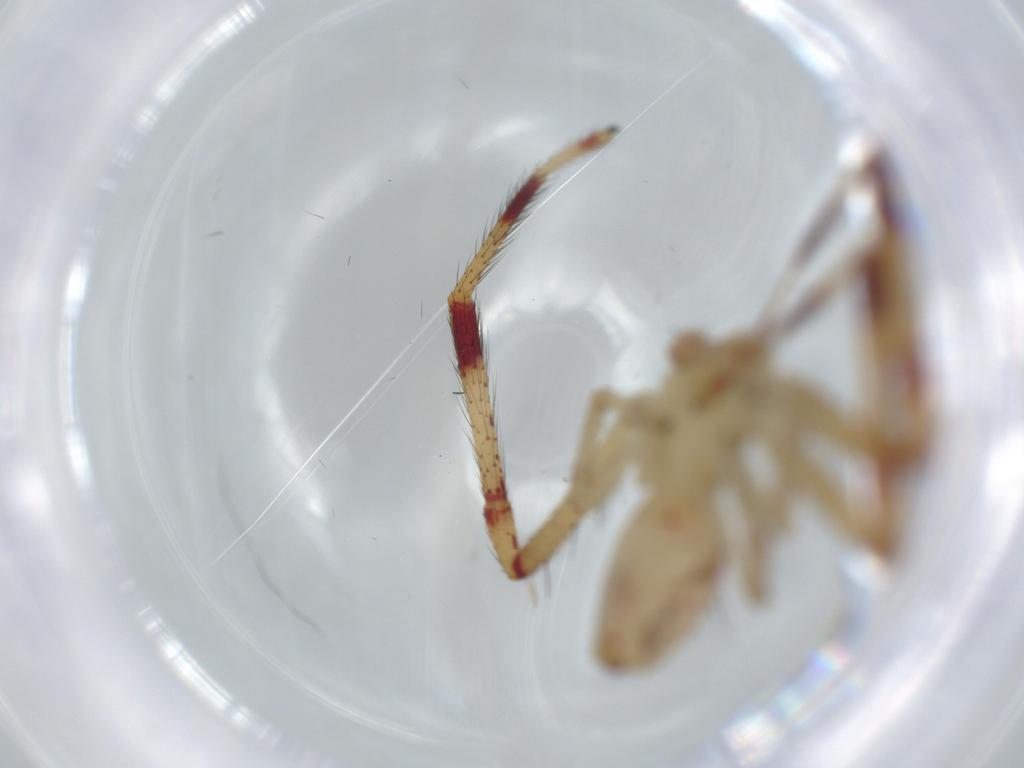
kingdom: Animalia
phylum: Arthropoda
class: Arachnida
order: Araneae
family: Thomisidae
